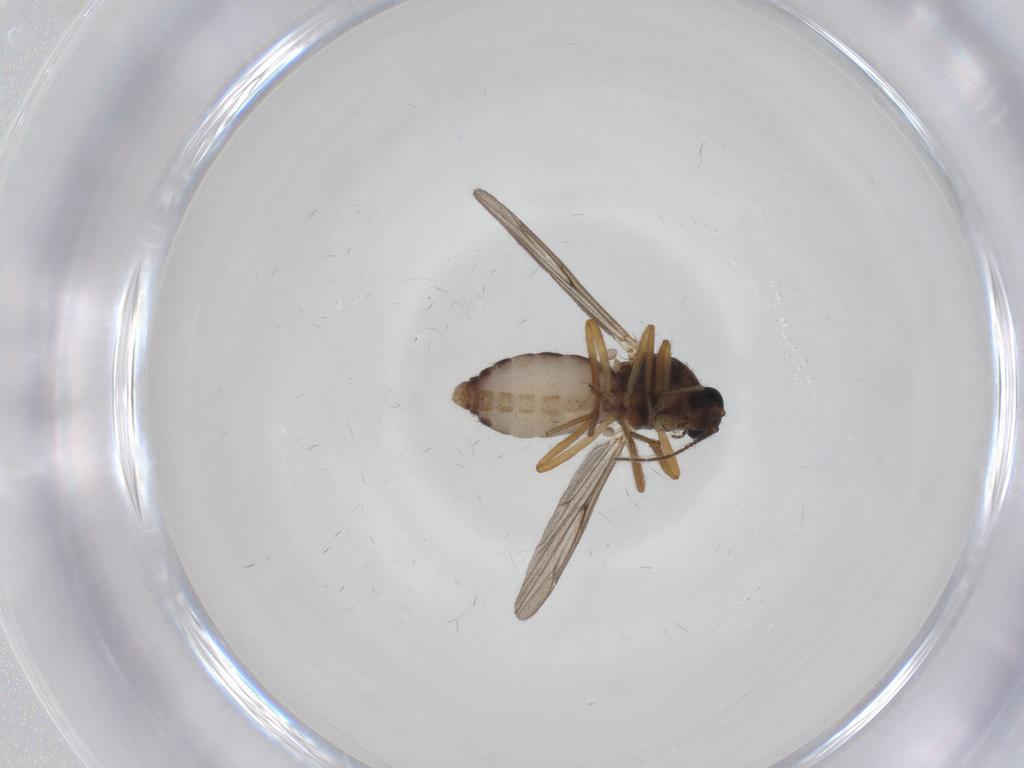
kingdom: Animalia
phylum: Arthropoda
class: Insecta
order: Diptera
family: Ceratopogonidae
